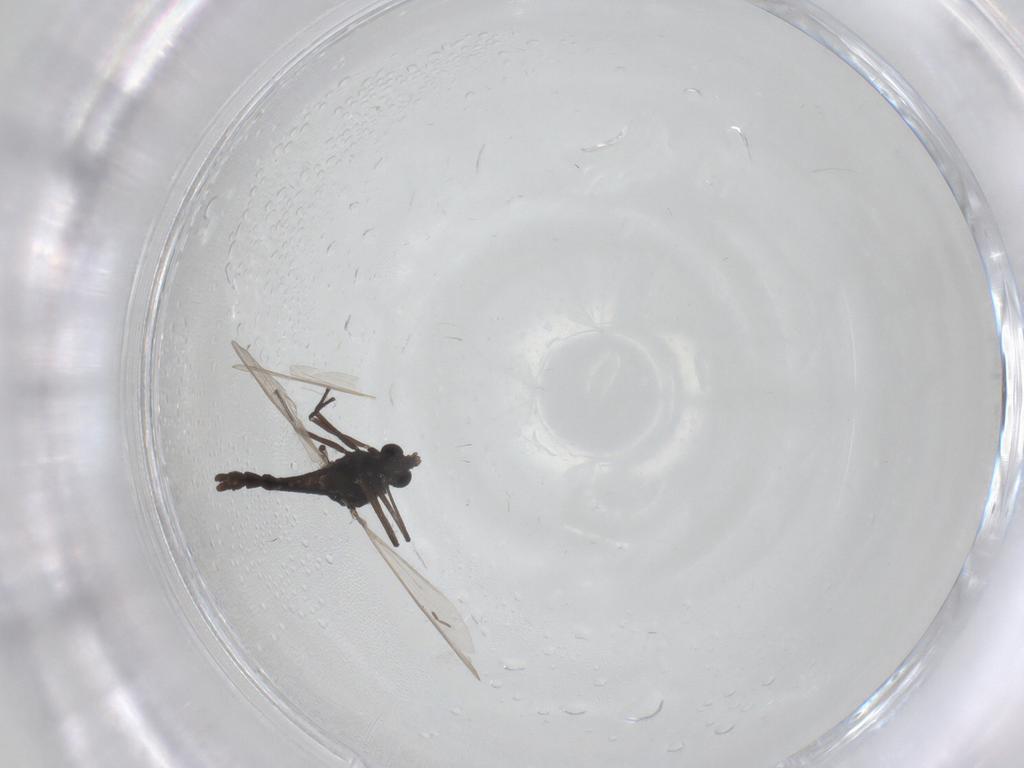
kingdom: Animalia
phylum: Arthropoda
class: Insecta
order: Diptera
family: Chironomidae
